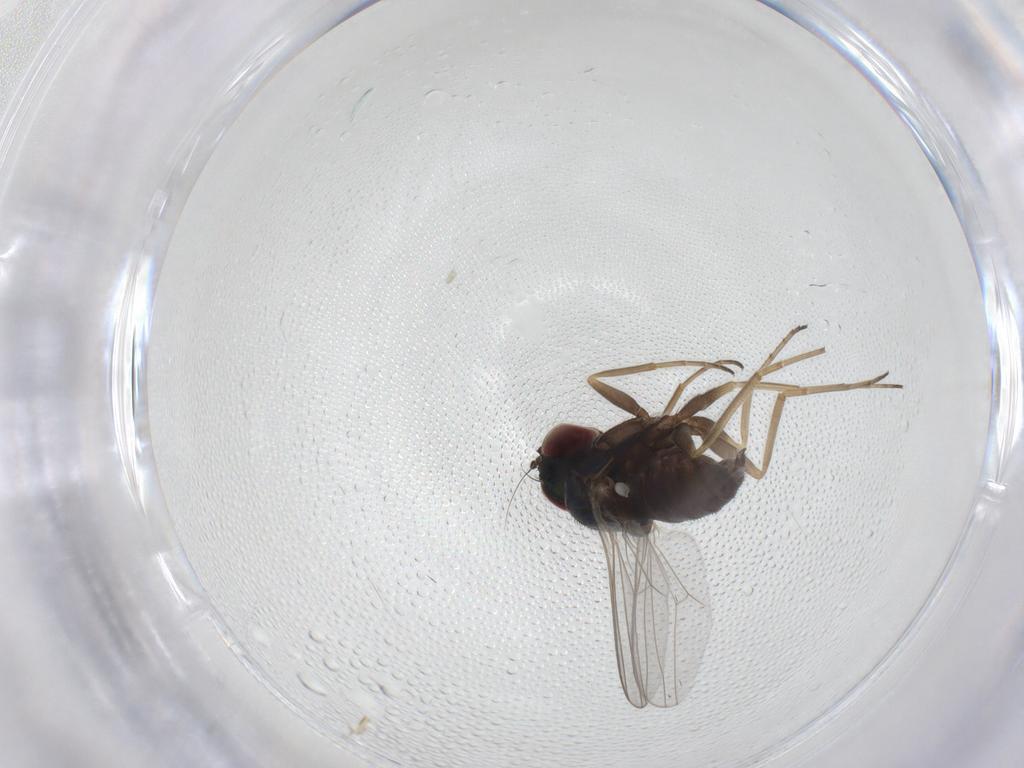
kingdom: Animalia
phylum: Arthropoda
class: Insecta
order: Diptera
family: Dolichopodidae
